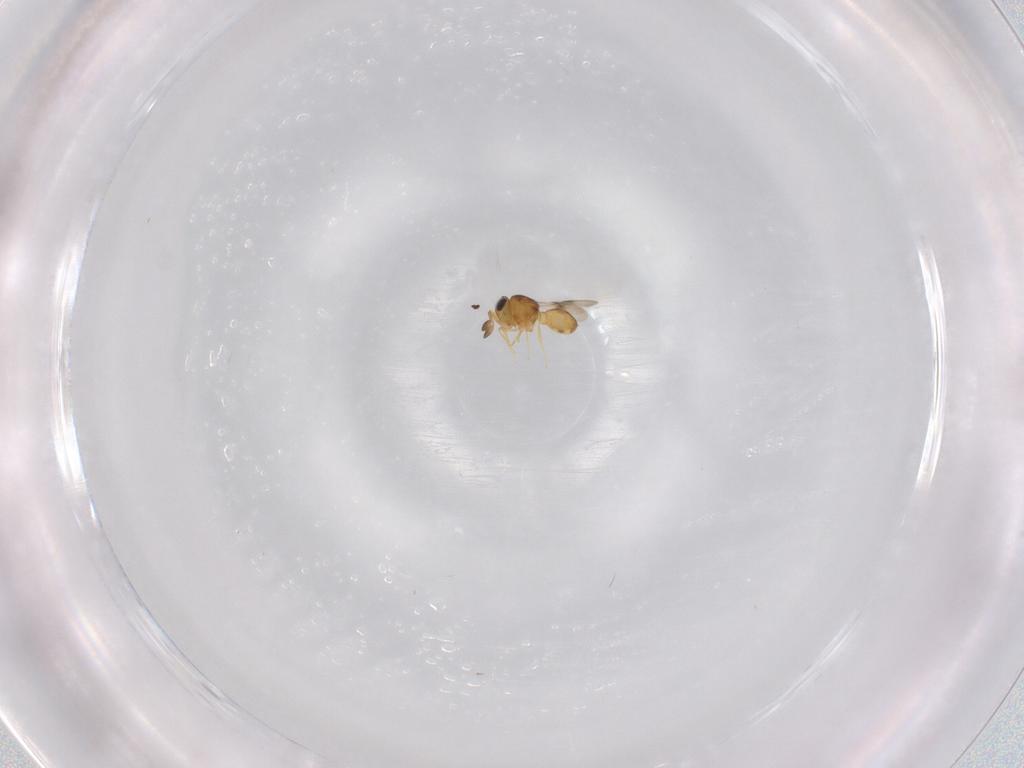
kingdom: Animalia
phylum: Arthropoda
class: Insecta
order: Hymenoptera
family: Scelionidae
